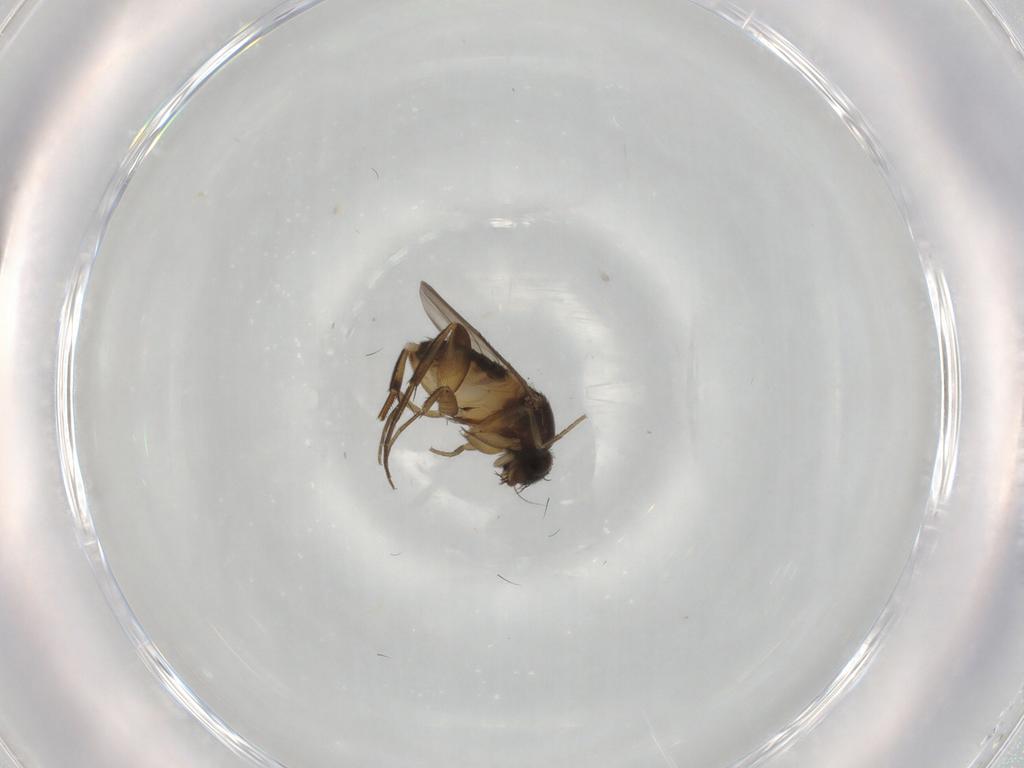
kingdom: Animalia
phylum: Arthropoda
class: Insecta
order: Diptera
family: Phoridae
